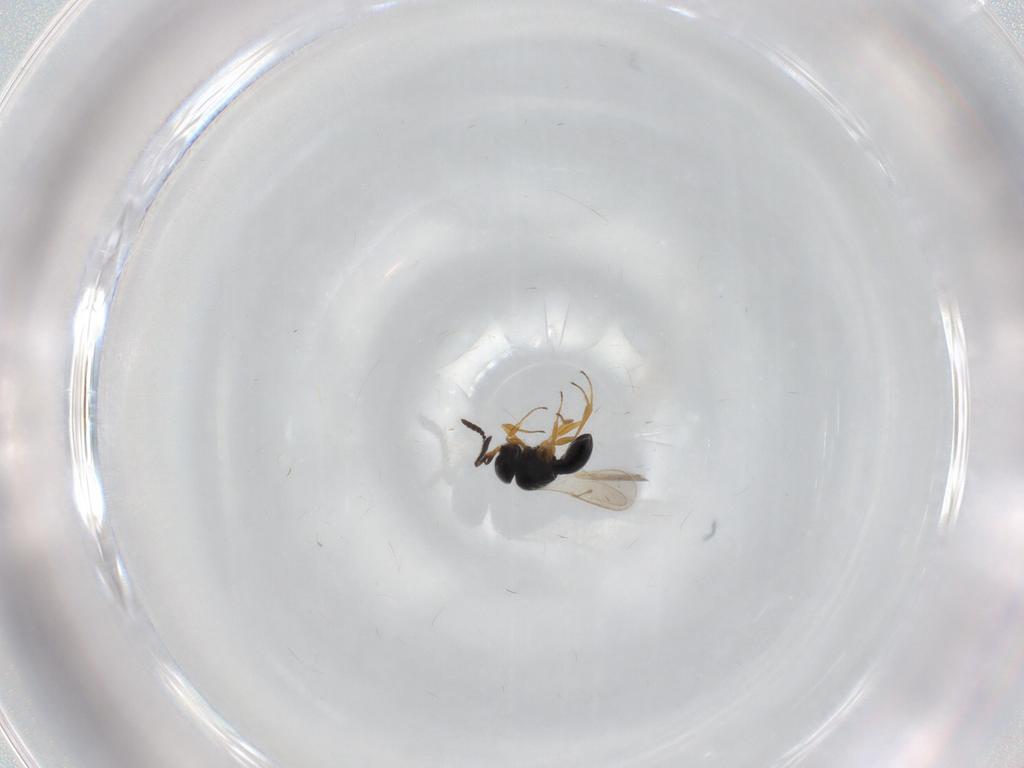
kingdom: Animalia
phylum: Arthropoda
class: Insecta
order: Hymenoptera
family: Scelionidae
